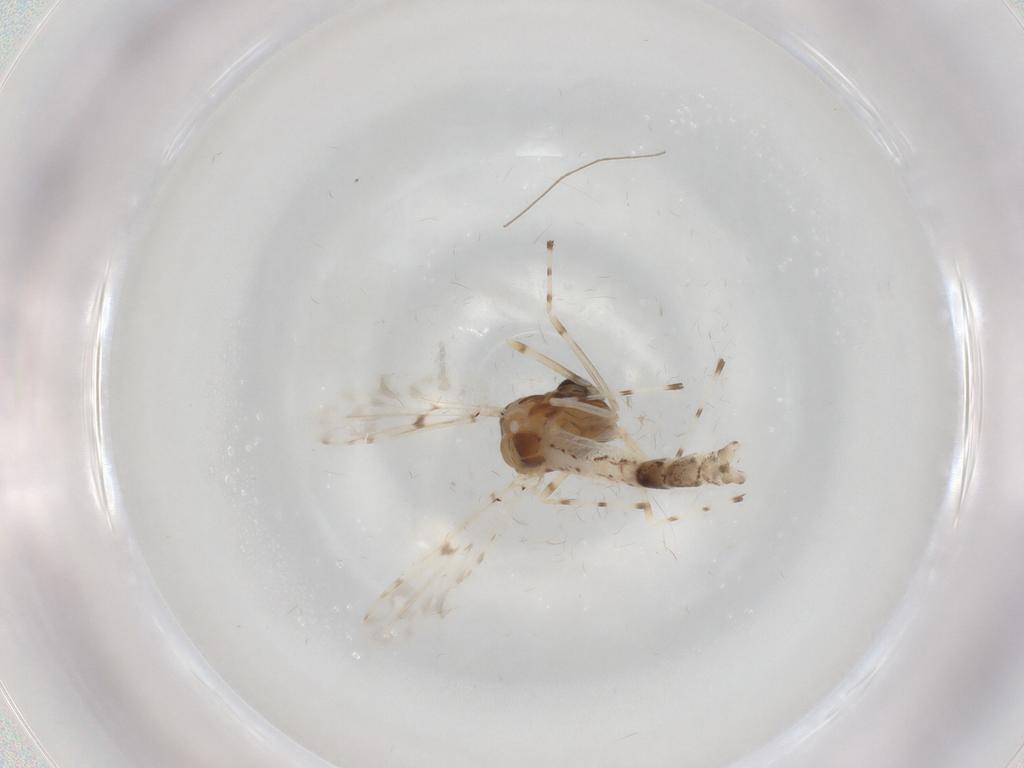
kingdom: Animalia
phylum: Arthropoda
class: Insecta
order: Diptera
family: Chironomidae
